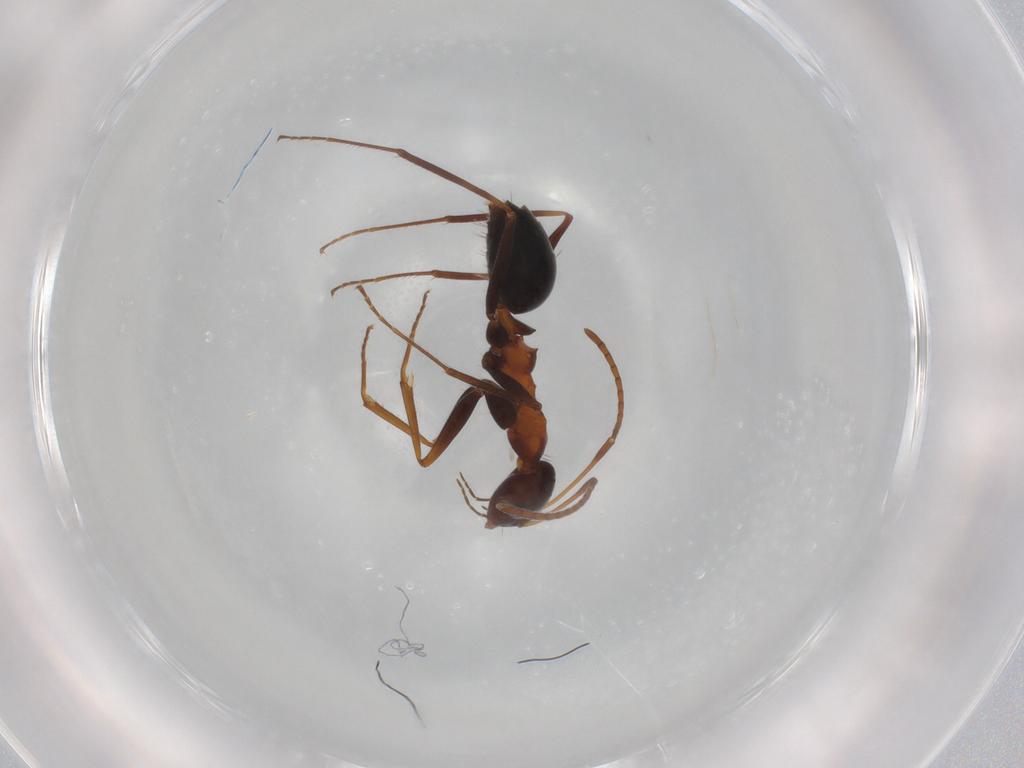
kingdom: Animalia
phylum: Arthropoda
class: Insecta
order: Hymenoptera
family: Formicidae
